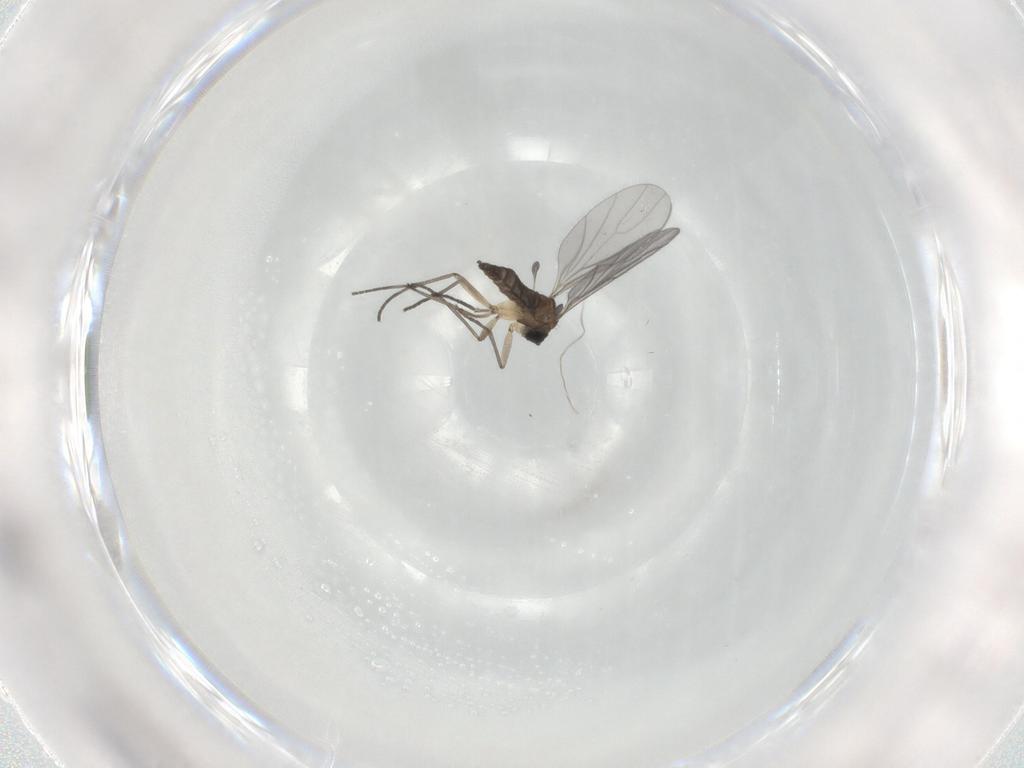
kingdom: Animalia
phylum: Arthropoda
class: Insecta
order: Diptera
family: Sciaridae
